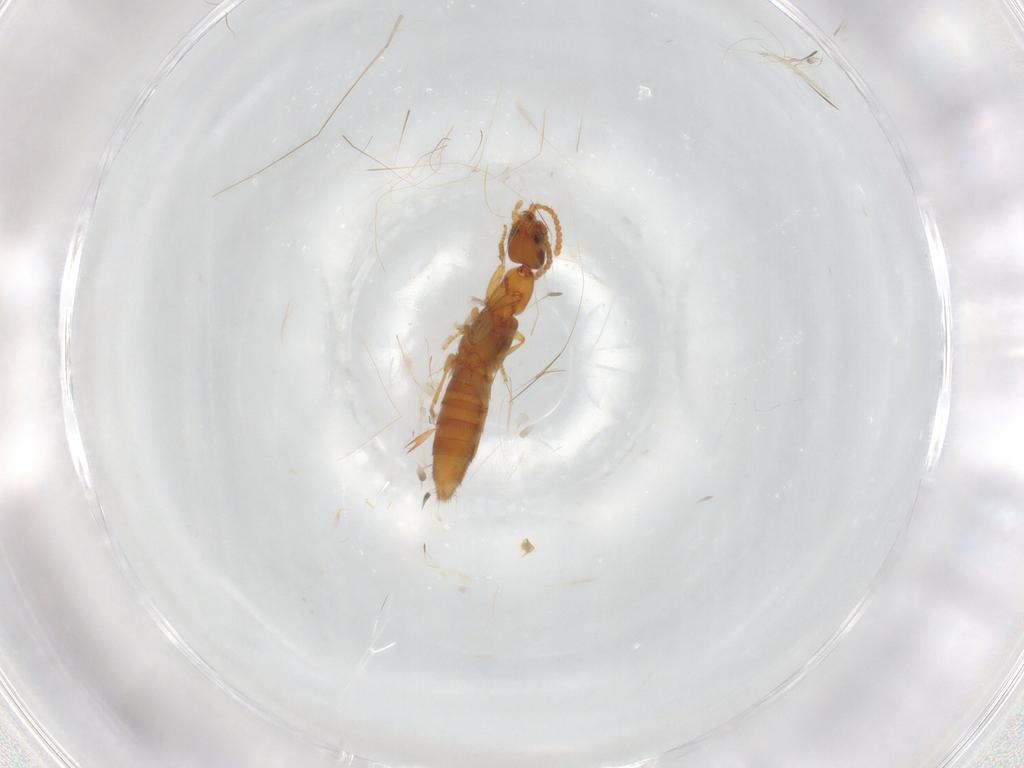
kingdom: Animalia
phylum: Arthropoda
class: Insecta
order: Coleoptera
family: Staphylinidae
